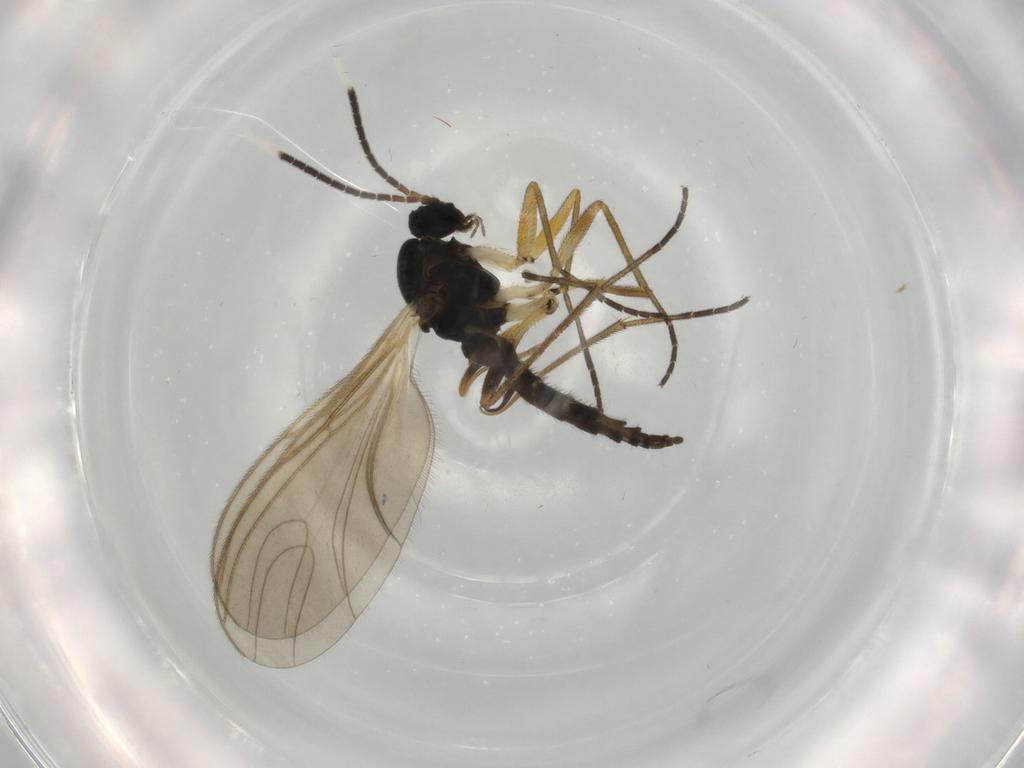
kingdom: Animalia
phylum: Arthropoda
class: Insecta
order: Diptera
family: Sciaridae
